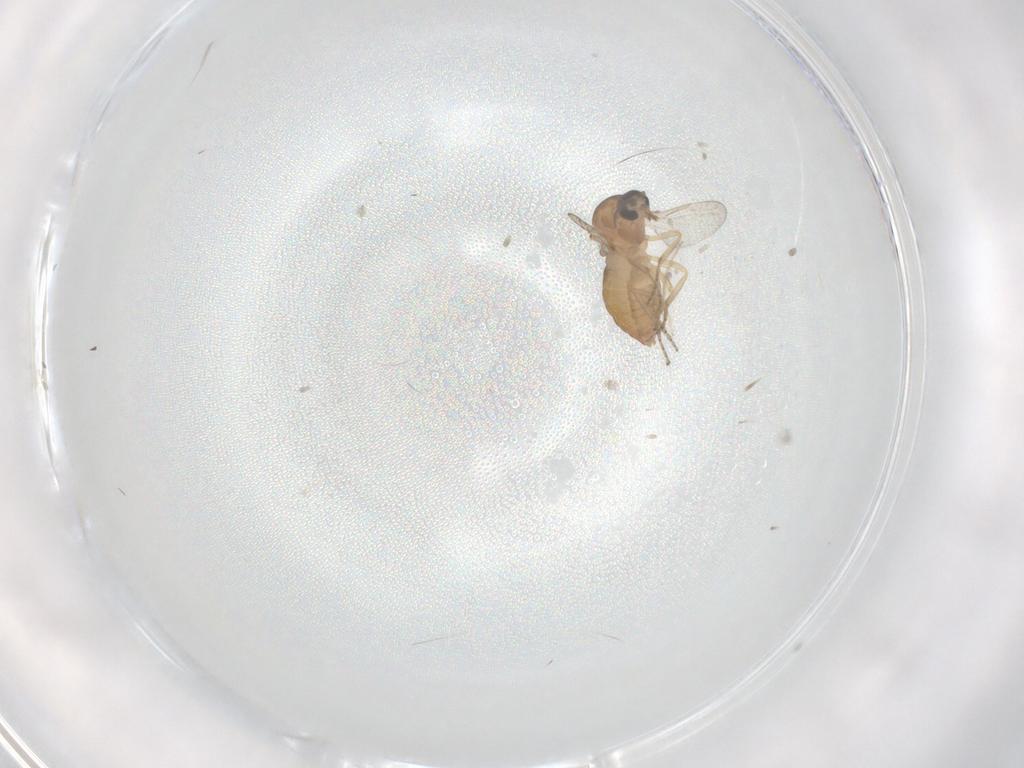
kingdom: Animalia
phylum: Arthropoda
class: Insecta
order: Diptera
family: Ceratopogonidae
